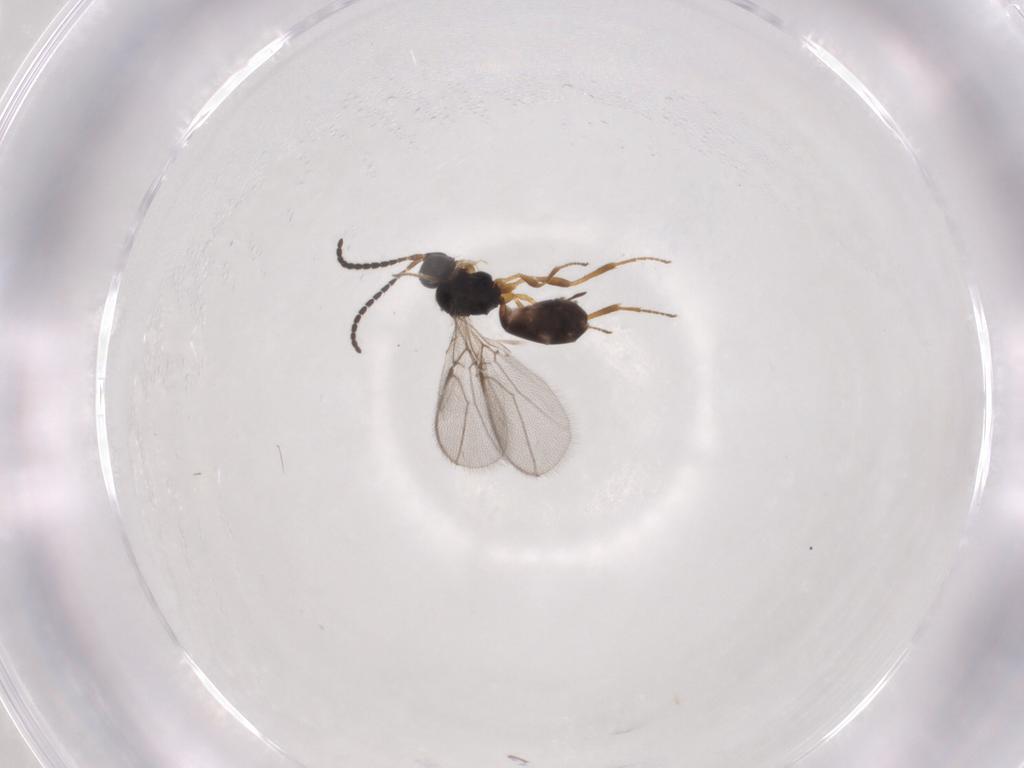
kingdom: Animalia
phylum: Arthropoda
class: Insecta
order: Hymenoptera
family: Braconidae
